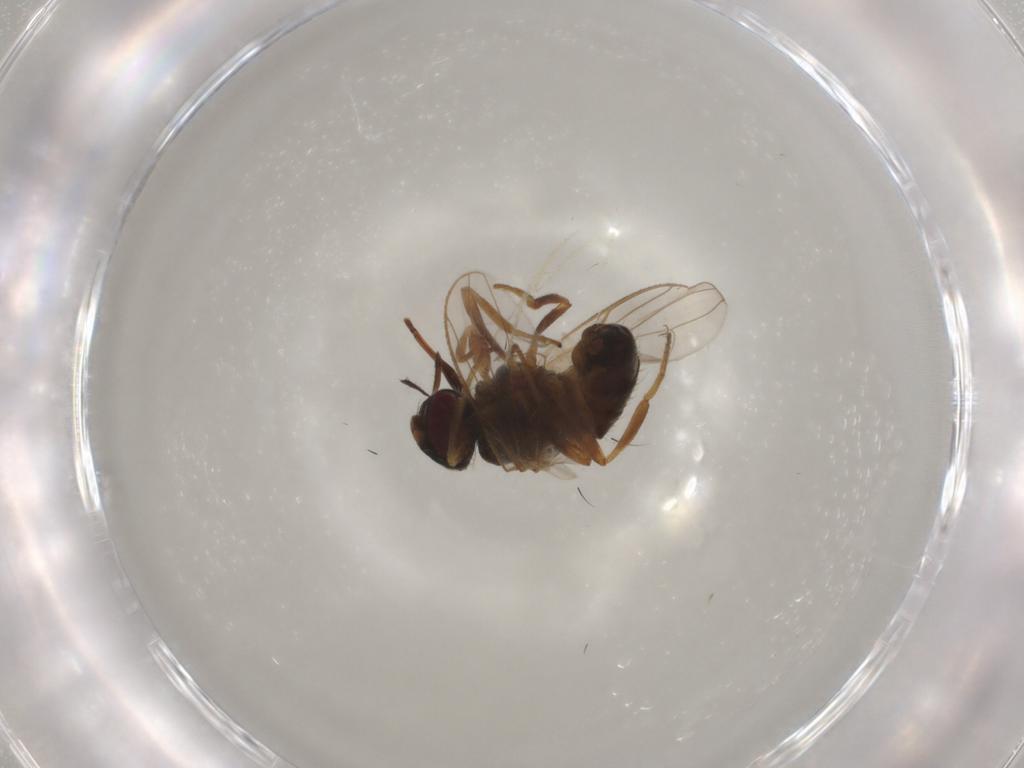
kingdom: Animalia
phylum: Arthropoda
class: Insecta
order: Diptera
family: Muscidae
